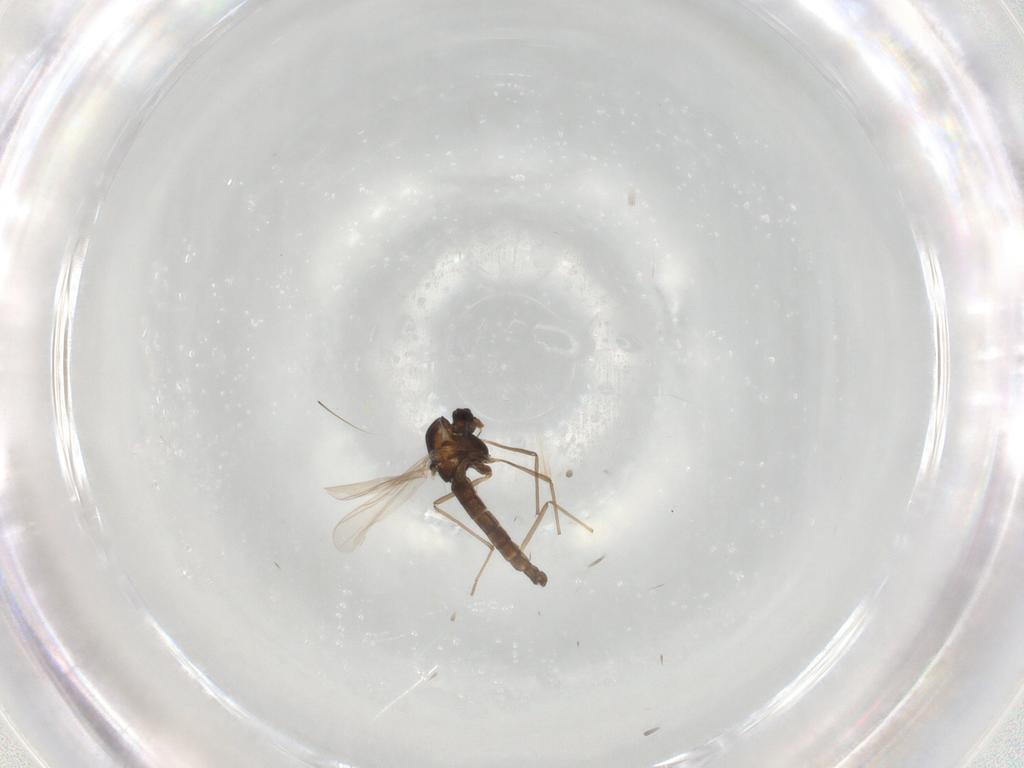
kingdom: Animalia
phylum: Arthropoda
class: Insecta
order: Diptera
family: Chironomidae
